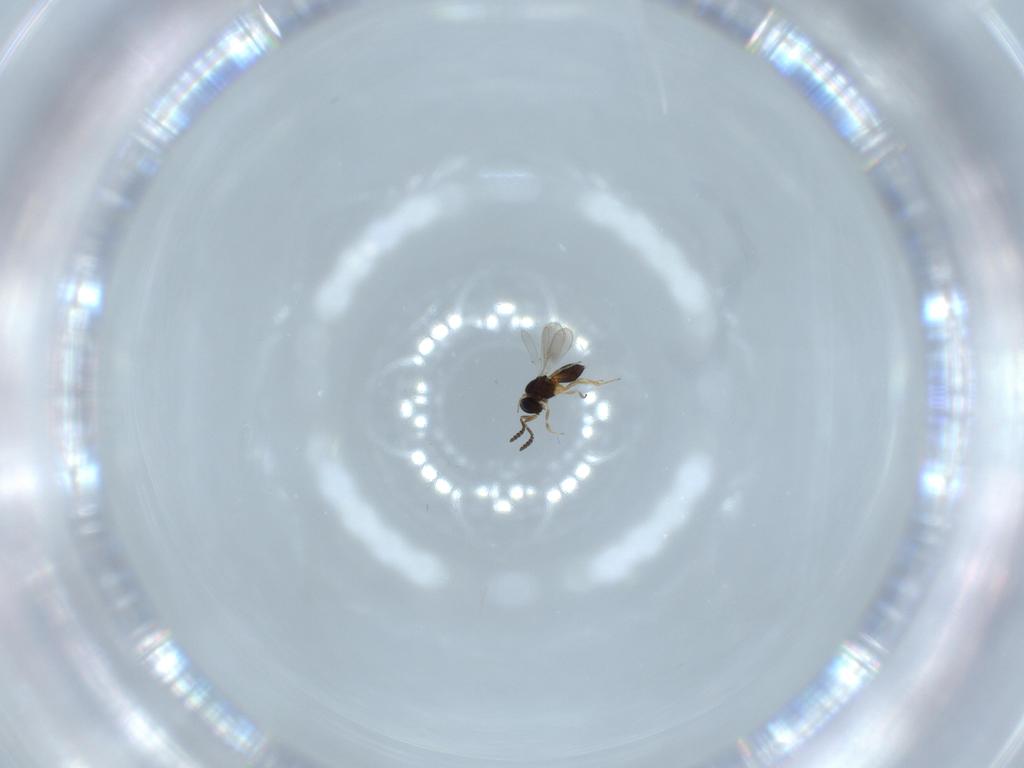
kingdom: Animalia
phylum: Arthropoda
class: Insecta
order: Hymenoptera
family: Scelionidae
